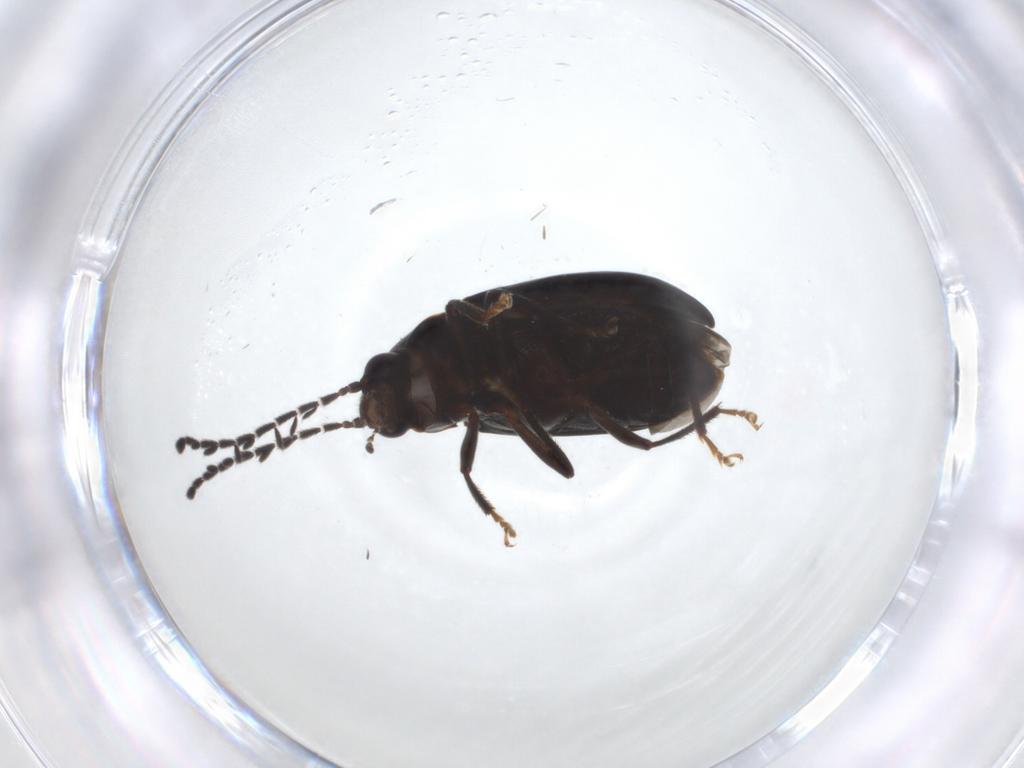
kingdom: Animalia
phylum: Arthropoda
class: Insecta
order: Coleoptera
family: Ptilodactylidae
